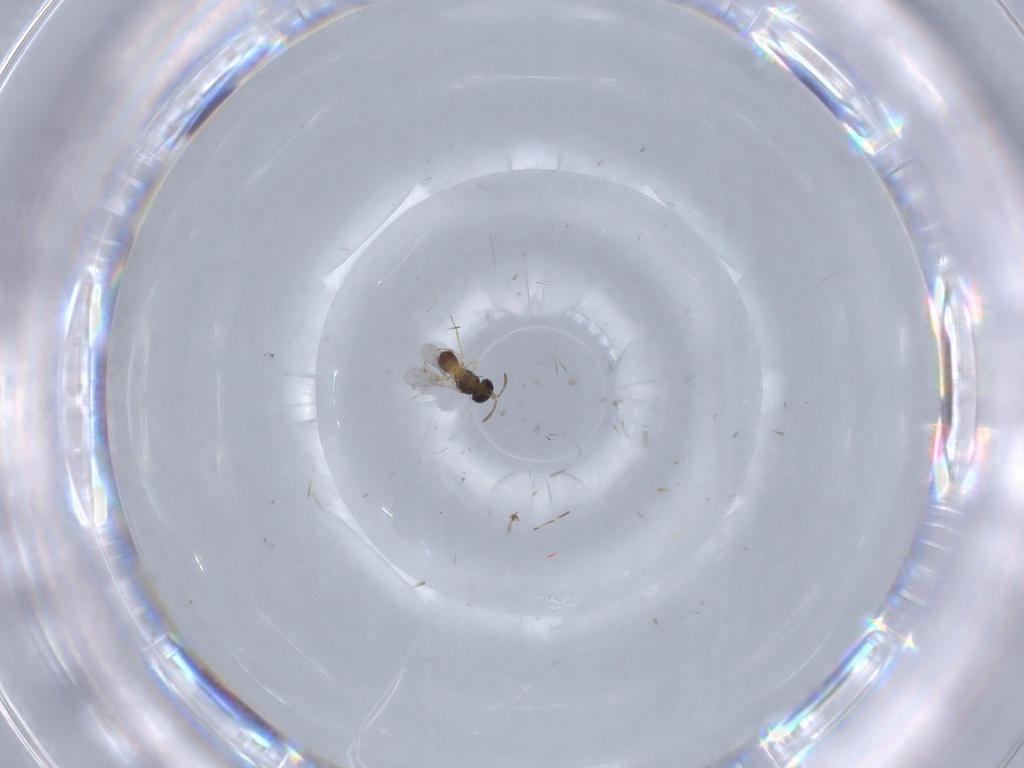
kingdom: Animalia
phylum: Arthropoda
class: Insecta
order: Hymenoptera
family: Azotidae
